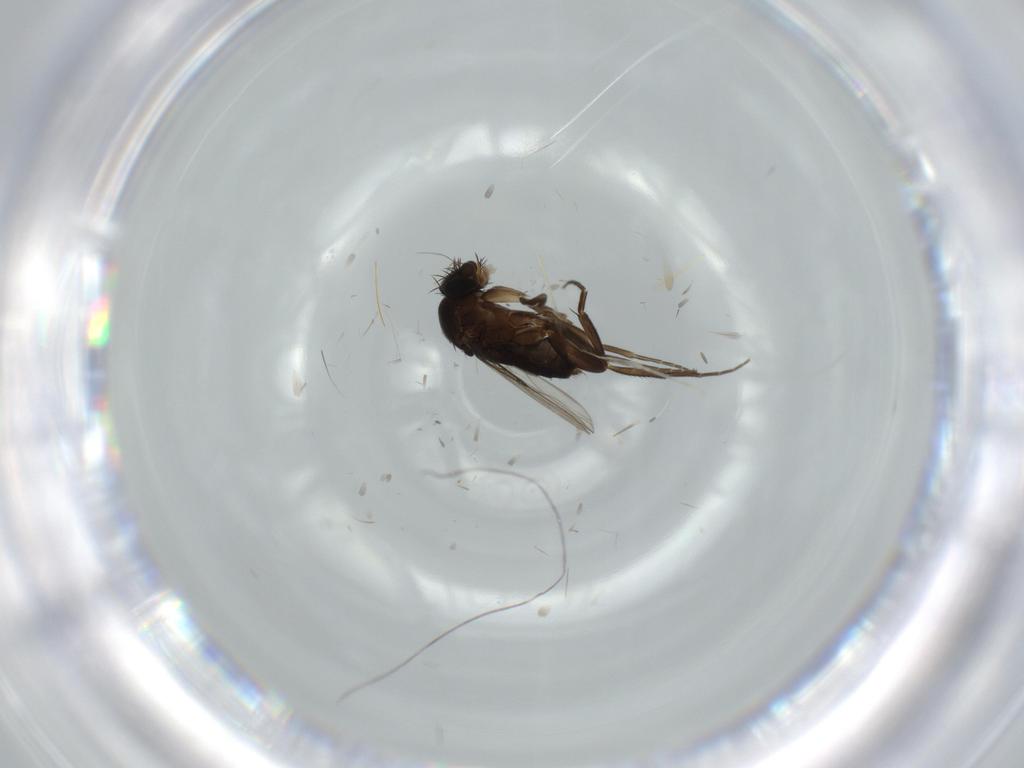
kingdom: Animalia
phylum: Arthropoda
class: Insecta
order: Diptera
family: Phoridae
